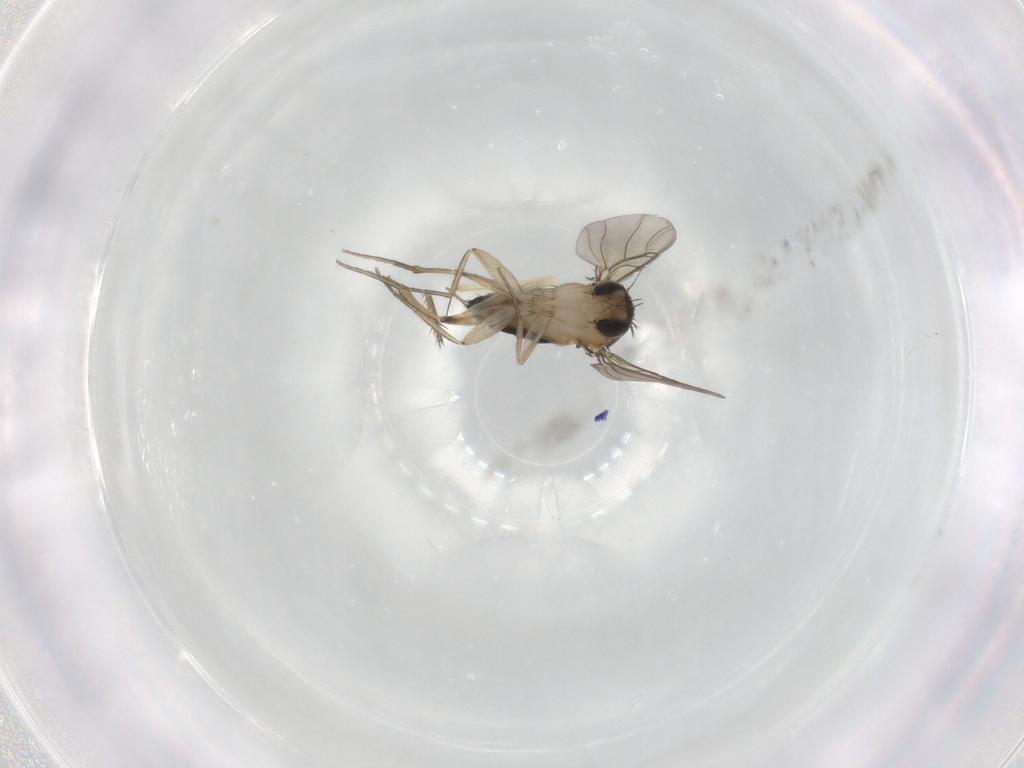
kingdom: Animalia
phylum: Arthropoda
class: Insecta
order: Diptera
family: Phoridae
